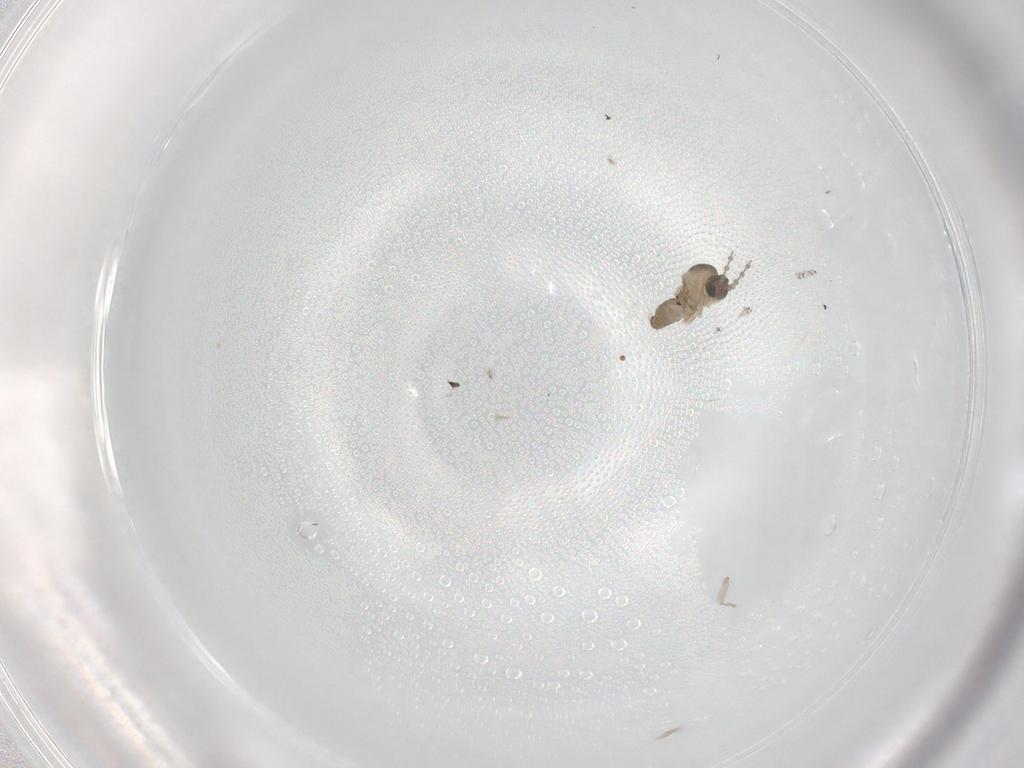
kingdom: Animalia
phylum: Arthropoda
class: Insecta
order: Diptera
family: Cecidomyiidae
